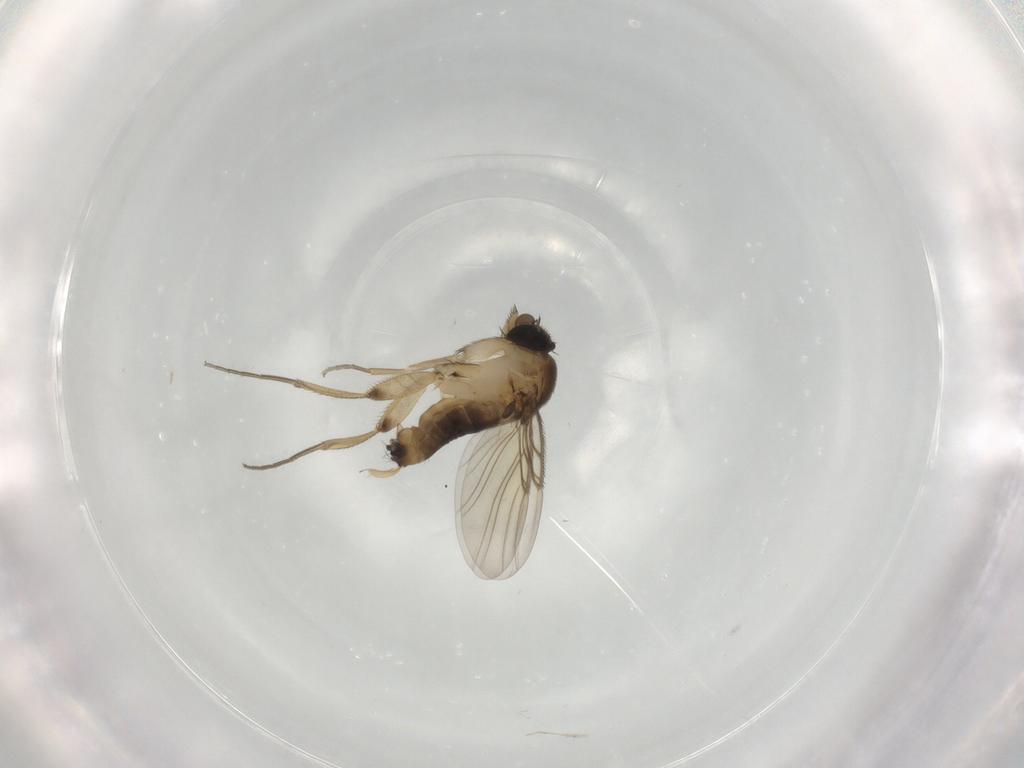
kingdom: Animalia
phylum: Arthropoda
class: Insecta
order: Diptera
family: Phoridae
